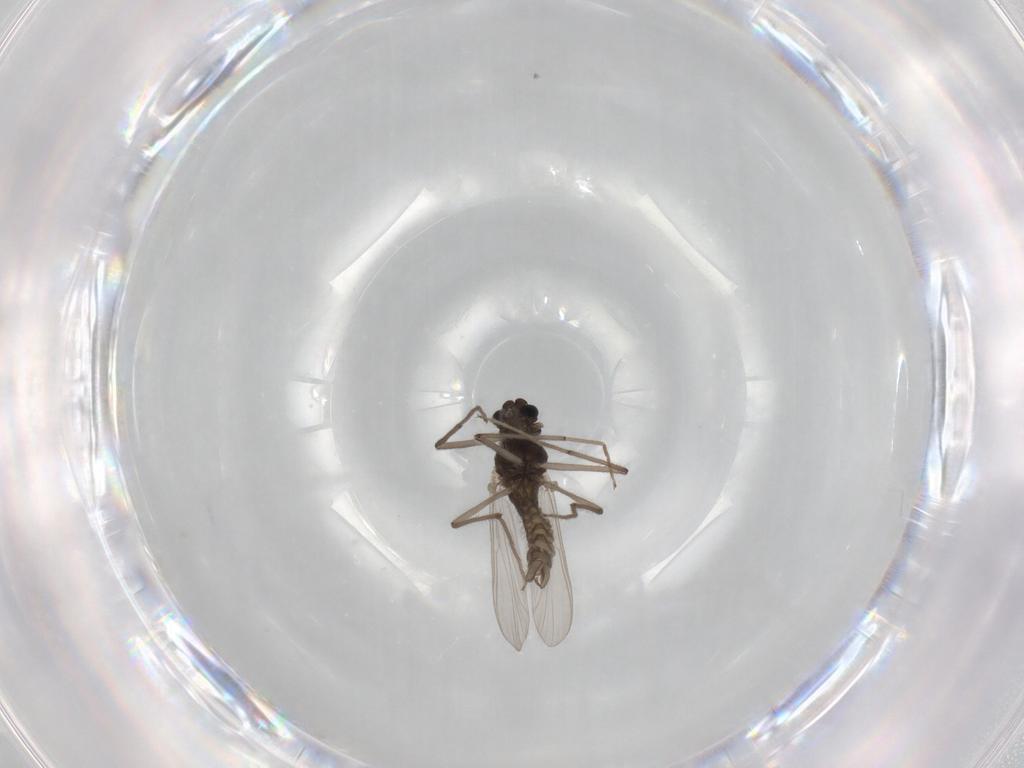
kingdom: Animalia
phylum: Arthropoda
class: Insecta
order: Diptera
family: Chironomidae
